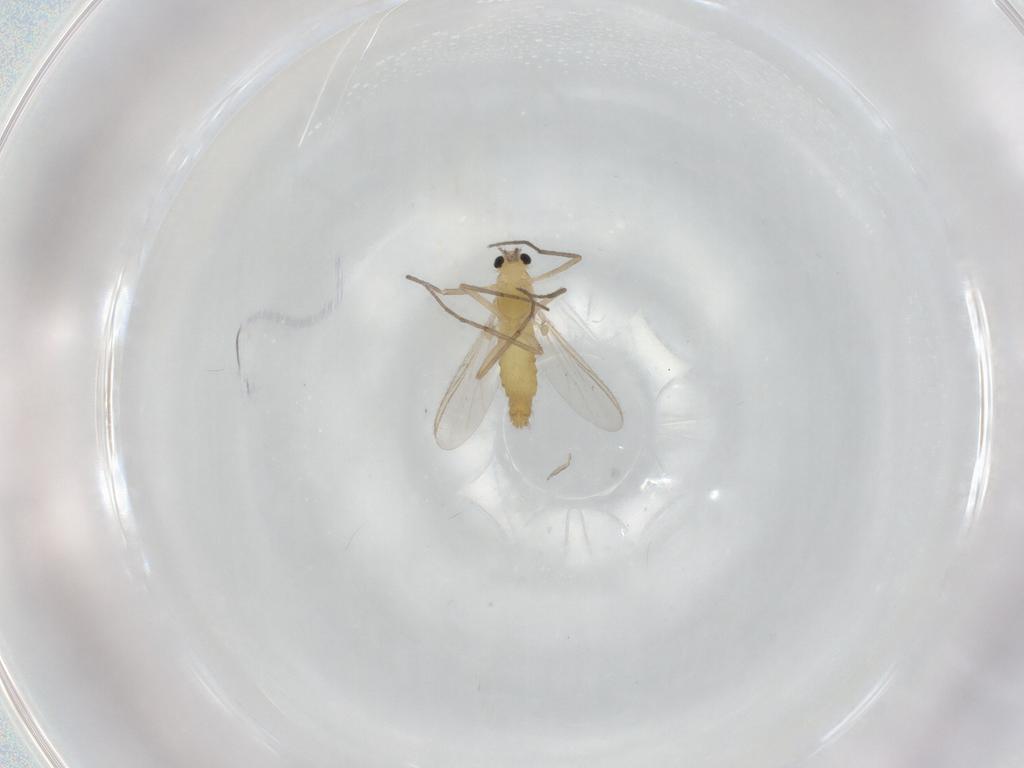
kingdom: Animalia
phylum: Arthropoda
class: Insecta
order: Diptera
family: Chironomidae
